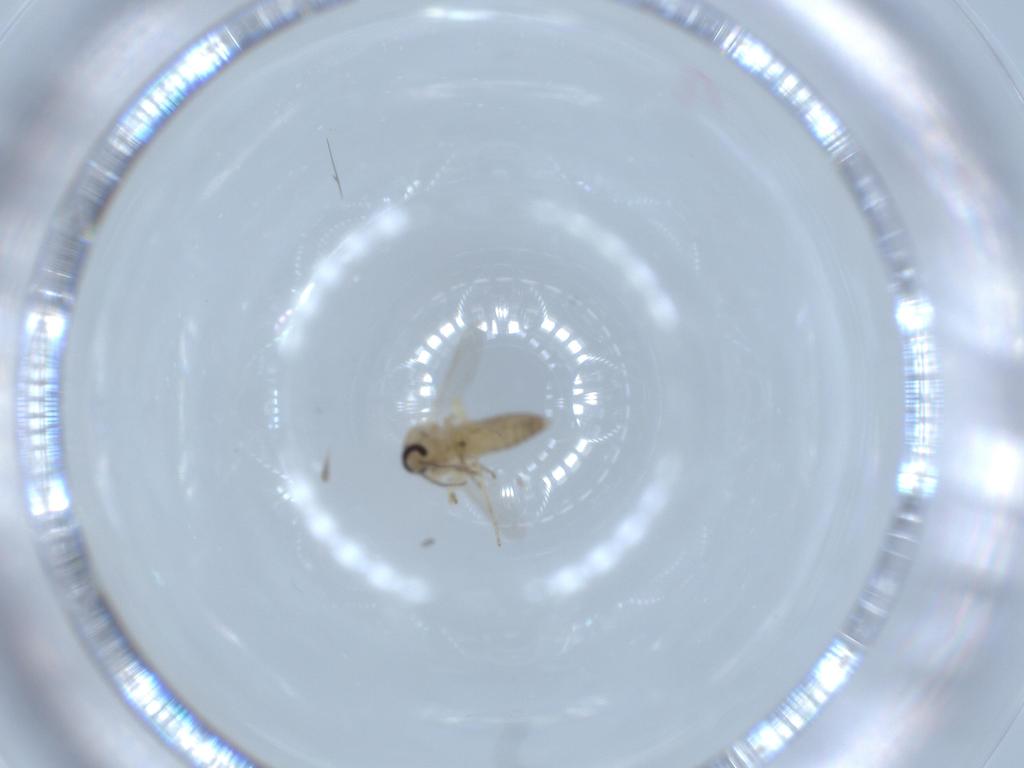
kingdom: Animalia
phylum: Arthropoda
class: Insecta
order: Diptera
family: Ceratopogonidae
